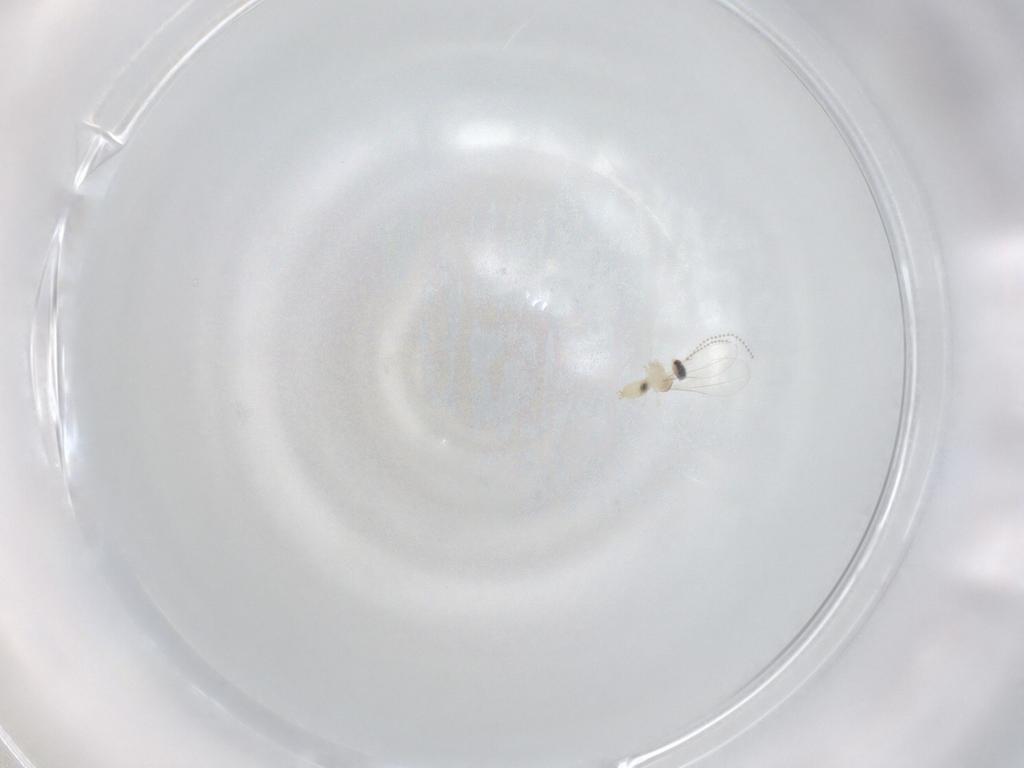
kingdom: Animalia
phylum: Arthropoda
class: Insecta
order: Diptera
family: Cecidomyiidae
